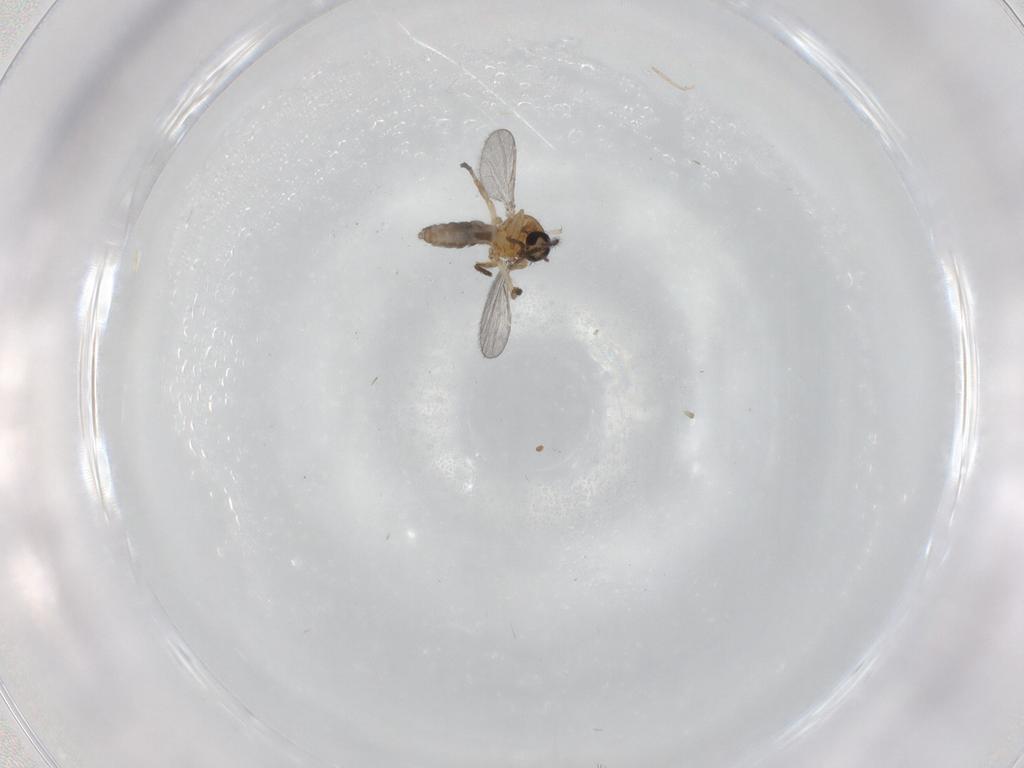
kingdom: Animalia
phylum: Arthropoda
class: Insecta
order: Diptera
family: Ceratopogonidae
